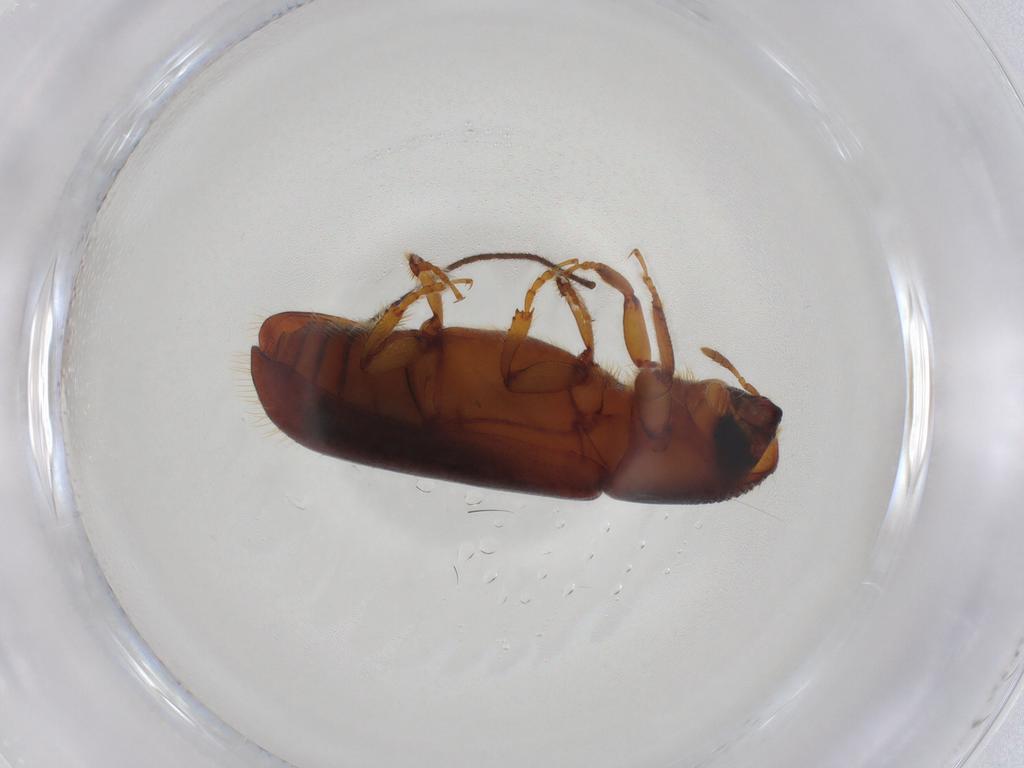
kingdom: Animalia
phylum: Arthropoda
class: Insecta
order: Coleoptera
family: Curculionidae
